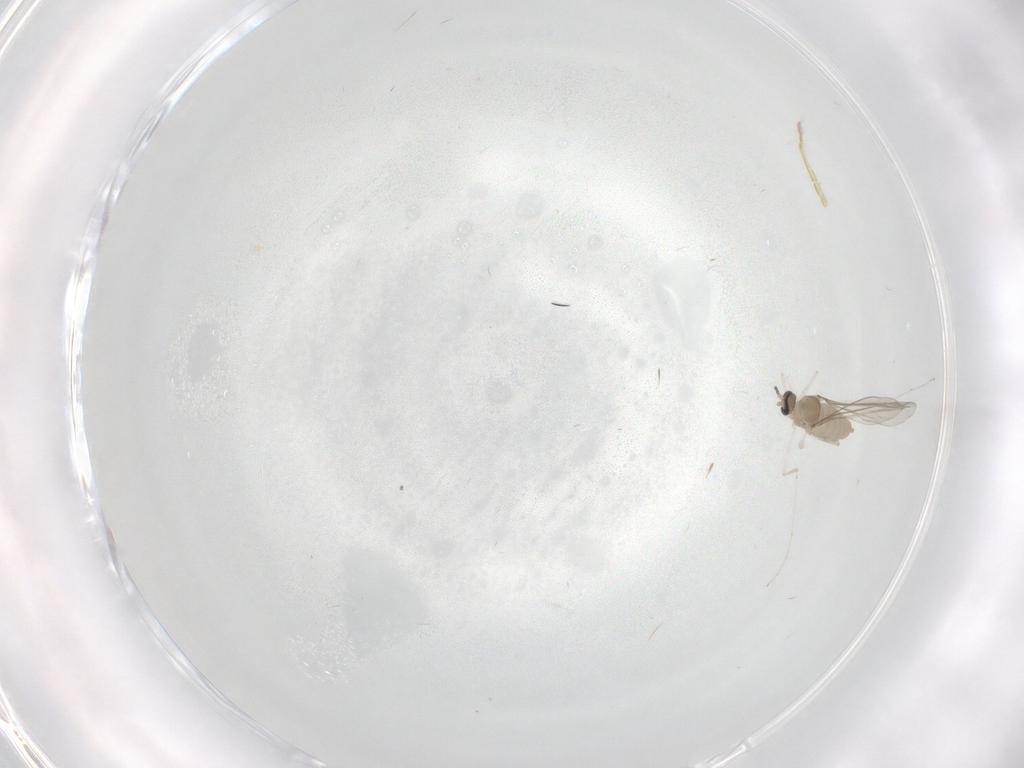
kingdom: Animalia
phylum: Arthropoda
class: Insecta
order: Diptera
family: Cecidomyiidae
